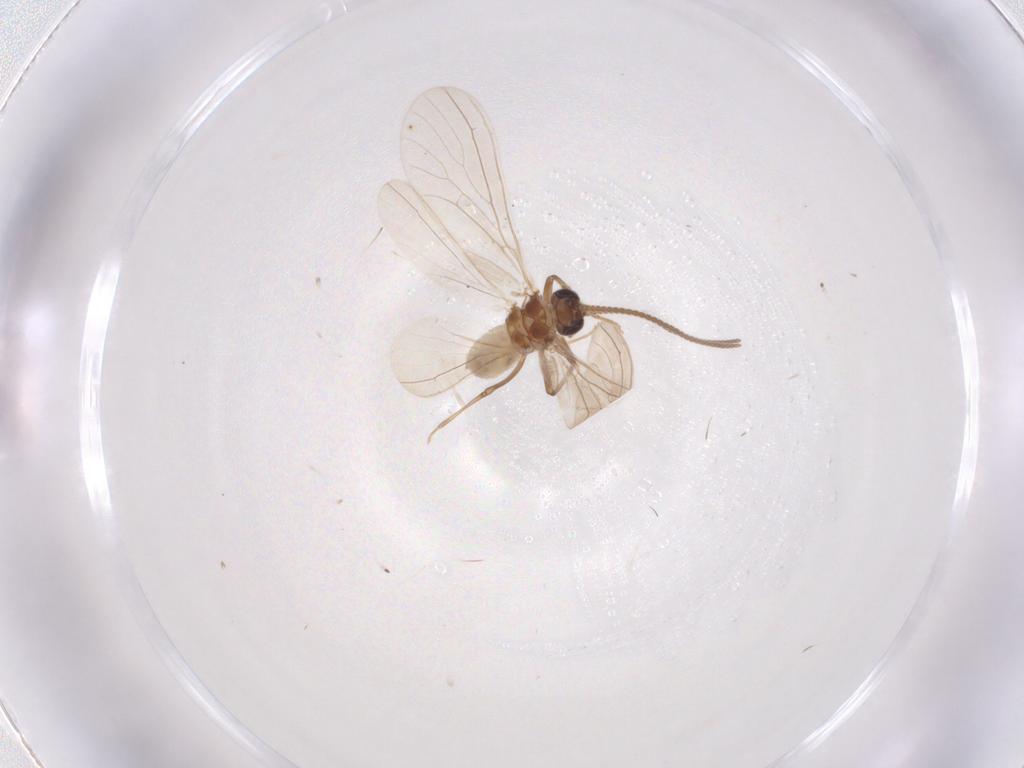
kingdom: Animalia
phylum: Arthropoda
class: Insecta
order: Neuroptera
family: Coniopterygidae
